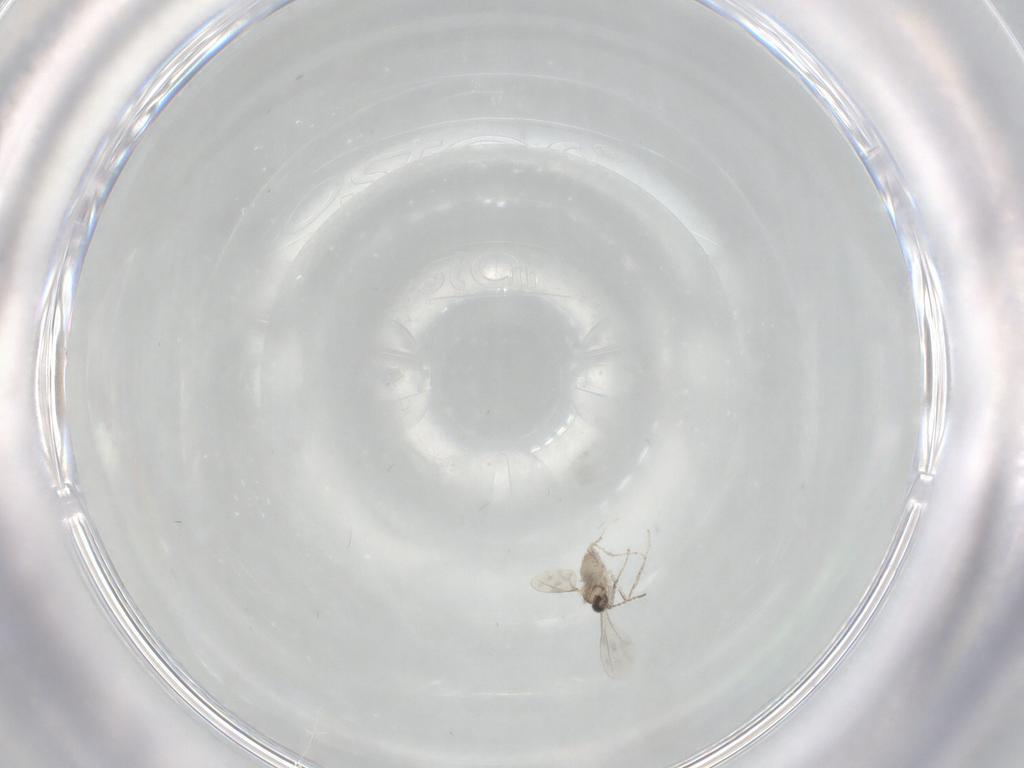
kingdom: Animalia
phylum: Arthropoda
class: Insecta
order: Diptera
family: Cecidomyiidae
